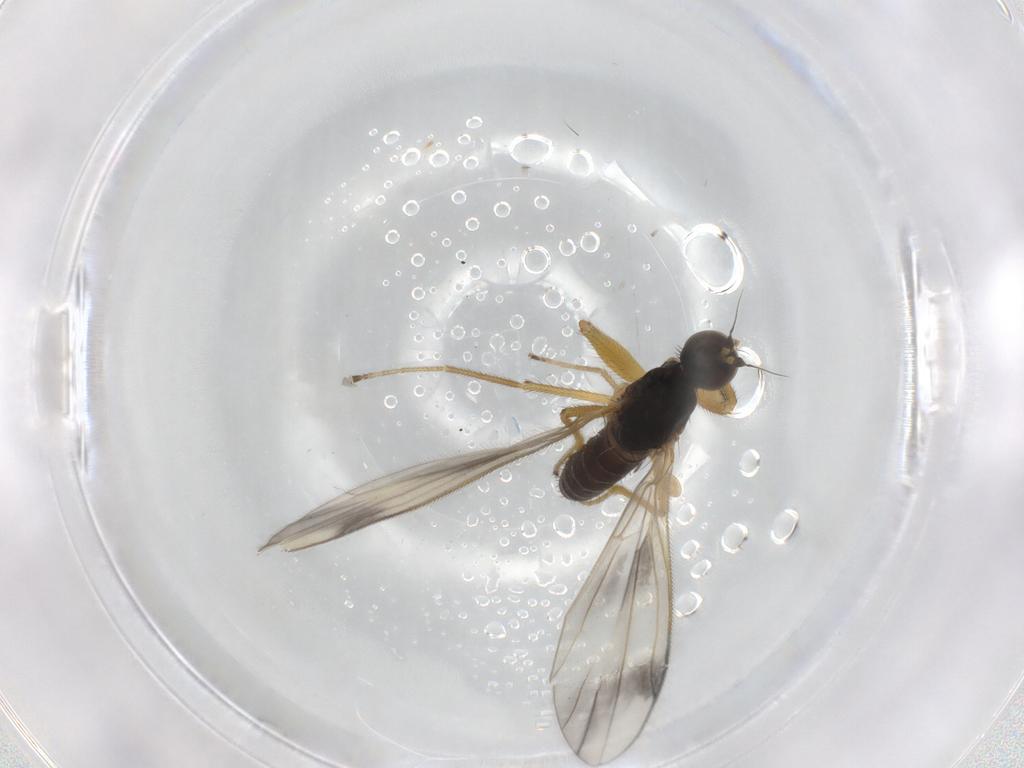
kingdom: Animalia
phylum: Arthropoda
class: Insecta
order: Diptera
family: Empididae
